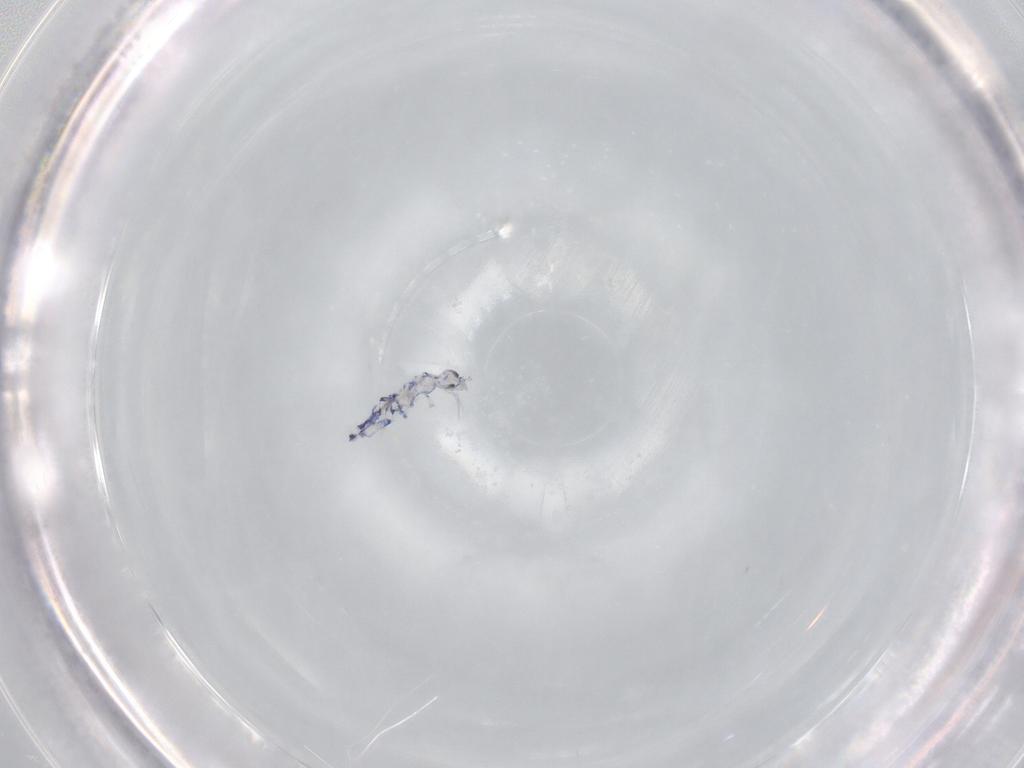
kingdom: Animalia
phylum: Arthropoda
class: Collembola
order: Entomobryomorpha
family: Entomobryidae
